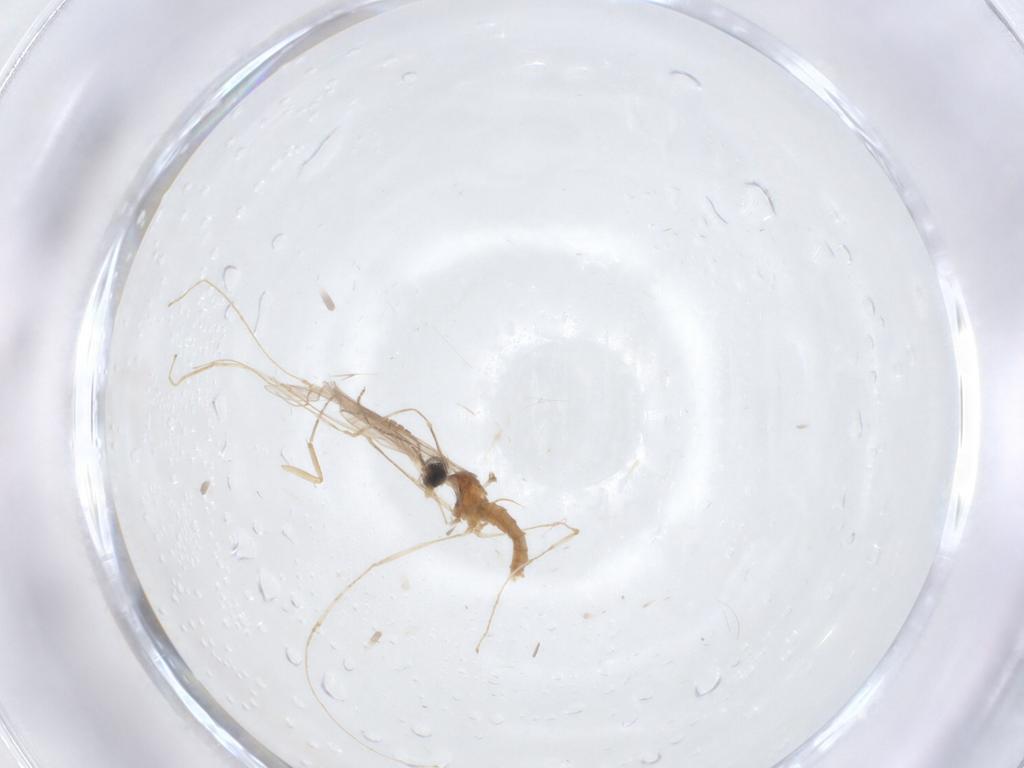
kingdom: Animalia
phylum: Arthropoda
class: Insecta
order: Diptera
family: Cecidomyiidae
